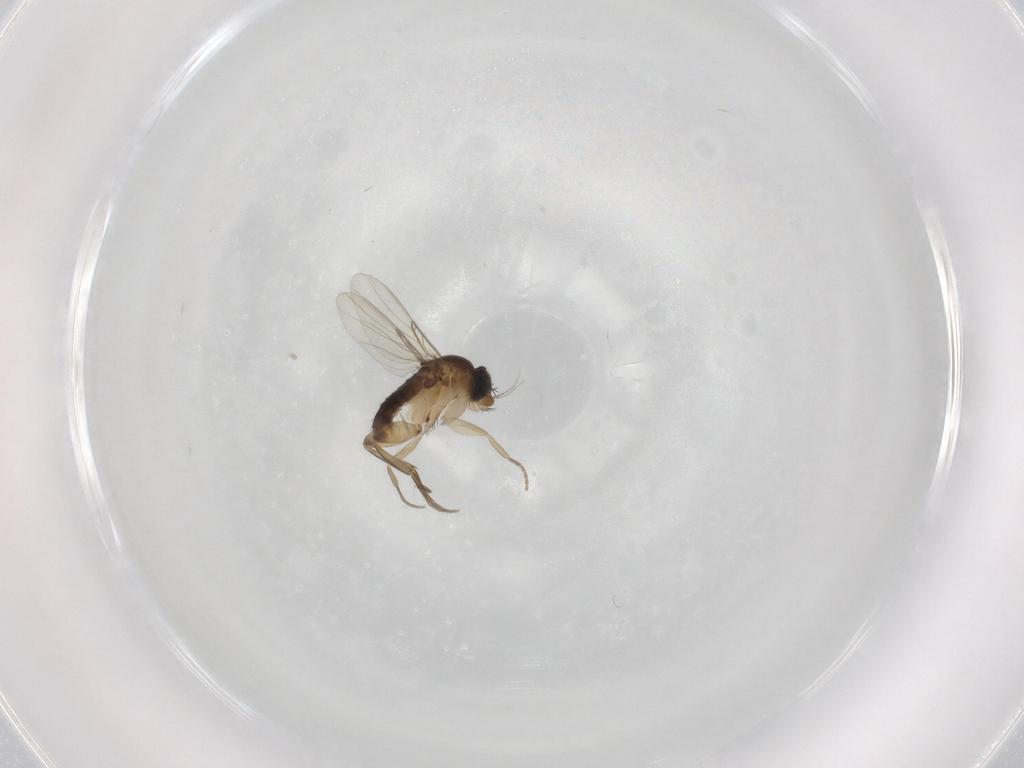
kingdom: Animalia
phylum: Arthropoda
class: Insecta
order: Diptera
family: Phoridae
